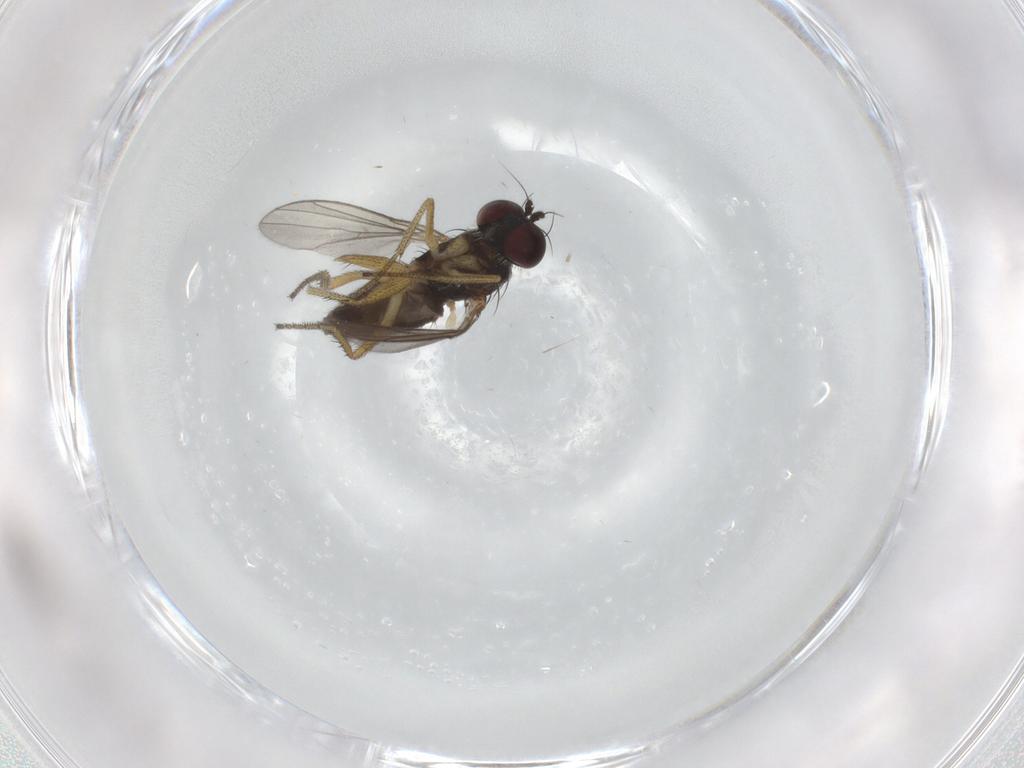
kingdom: Animalia
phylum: Arthropoda
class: Insecta
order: Diptera
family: Dolichopodidae
